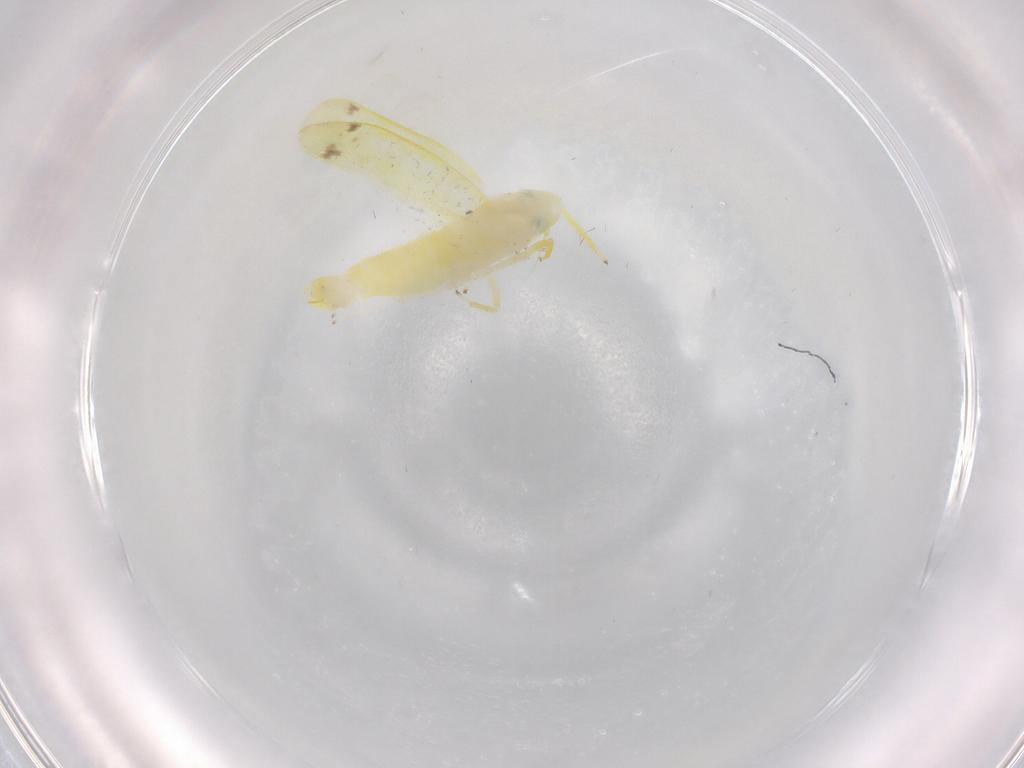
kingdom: Animalia
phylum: Arthropoda
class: Insecta
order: Hemiptera
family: Cicadellidae
